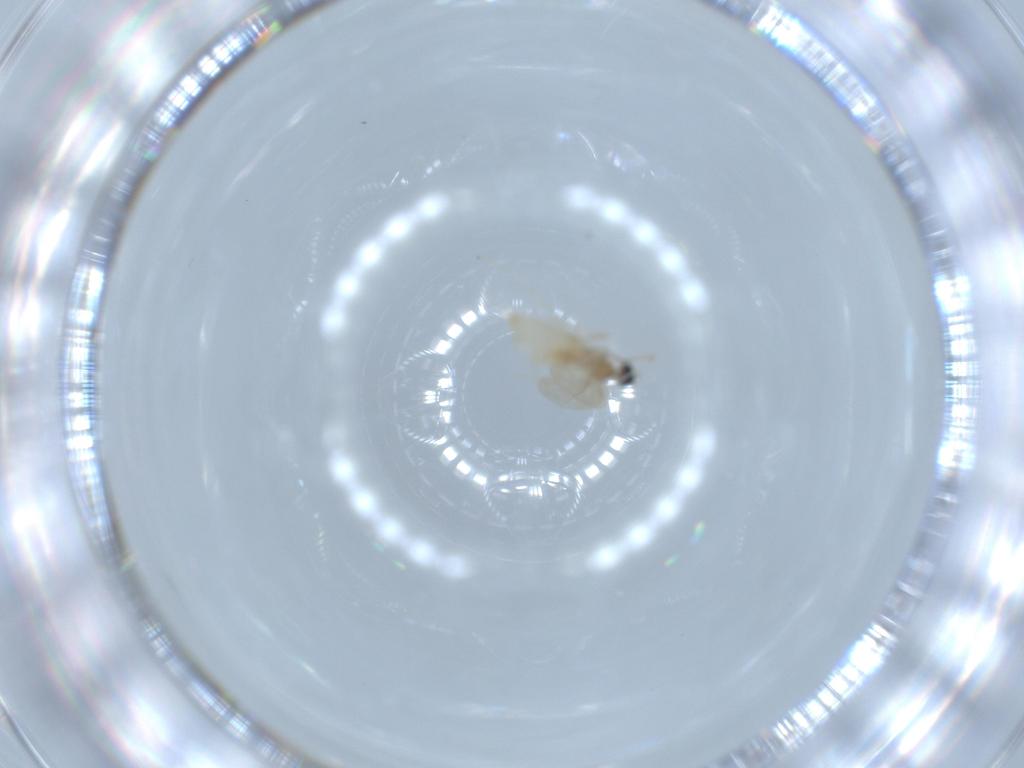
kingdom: Animalia
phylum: Arthropoda
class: Insecta
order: Diptera
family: Cecidomyiidae
